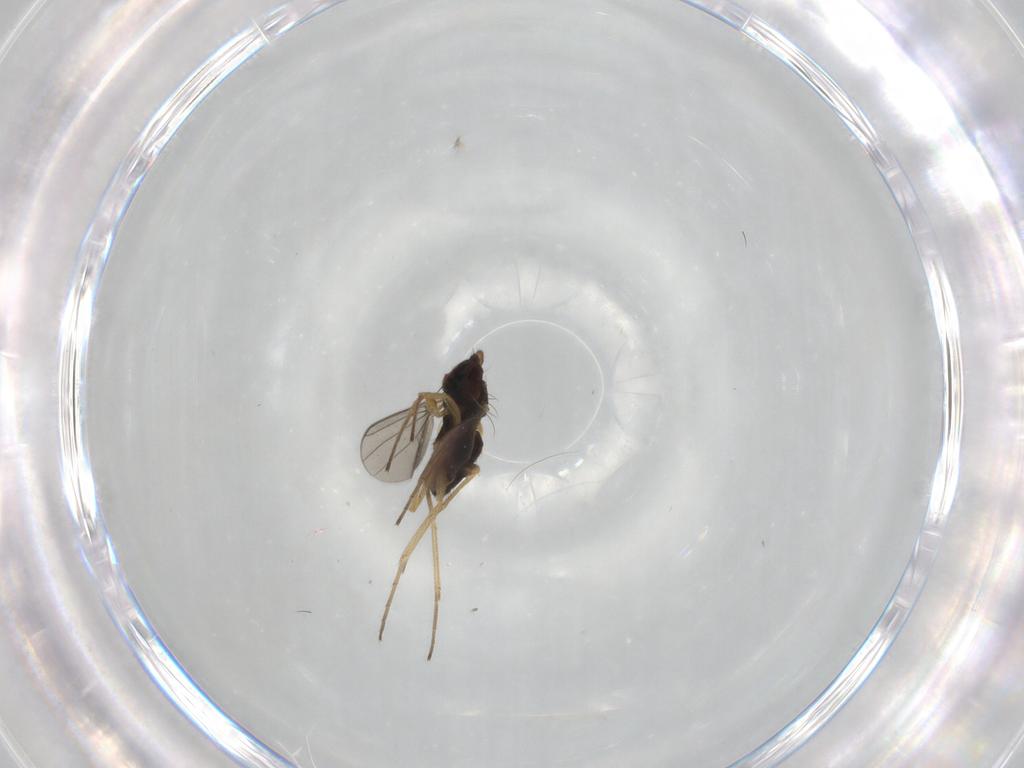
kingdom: Animalia
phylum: Arthropoda
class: Insecta
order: Diptera
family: Dolichopodidae
